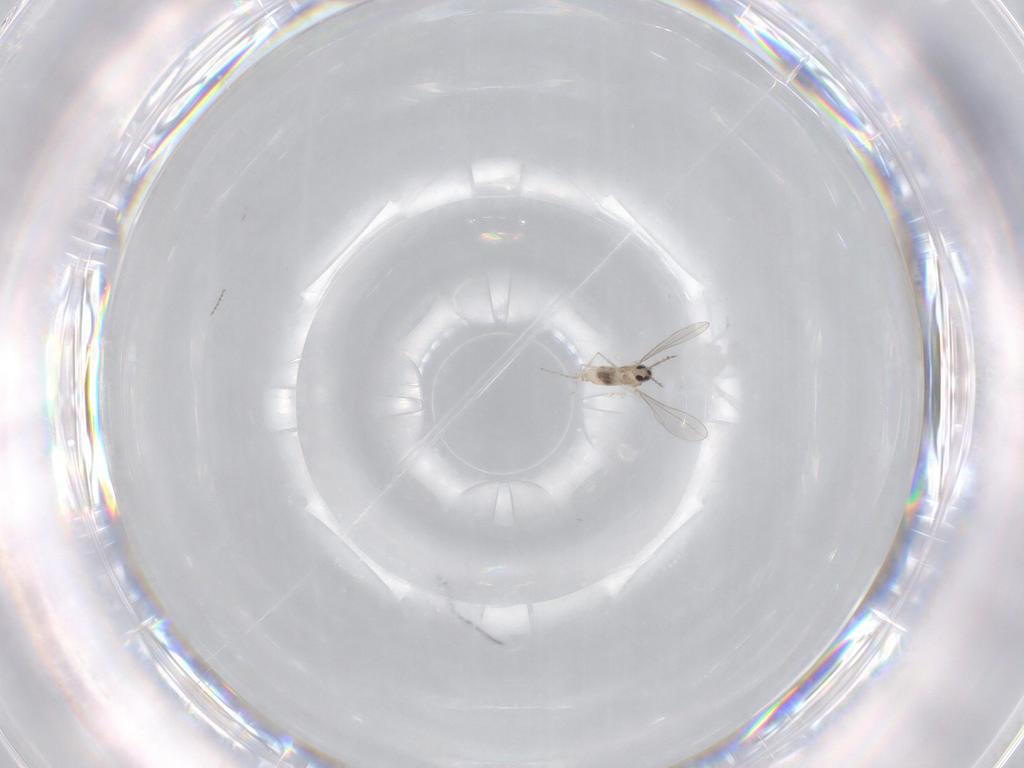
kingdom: Animalia
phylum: Arthropoda
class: Insecta
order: Diptera
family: Cecidomyiidae
